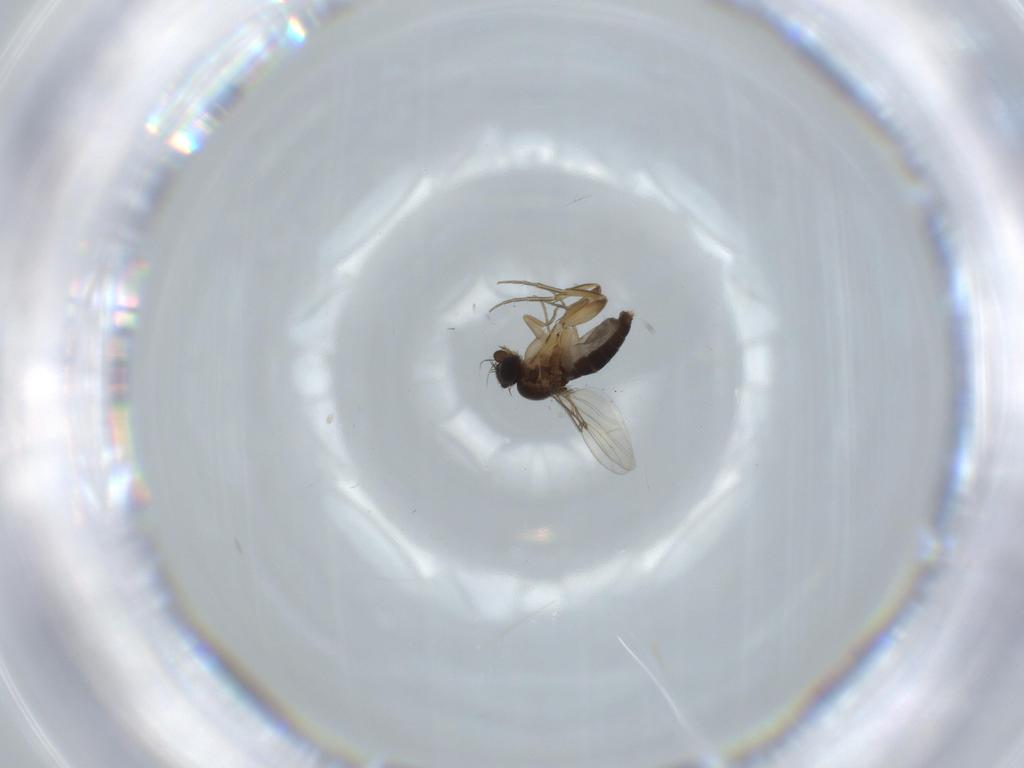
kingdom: Animalia
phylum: Arthropoda
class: Insecta
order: Diptera
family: Phoridae
